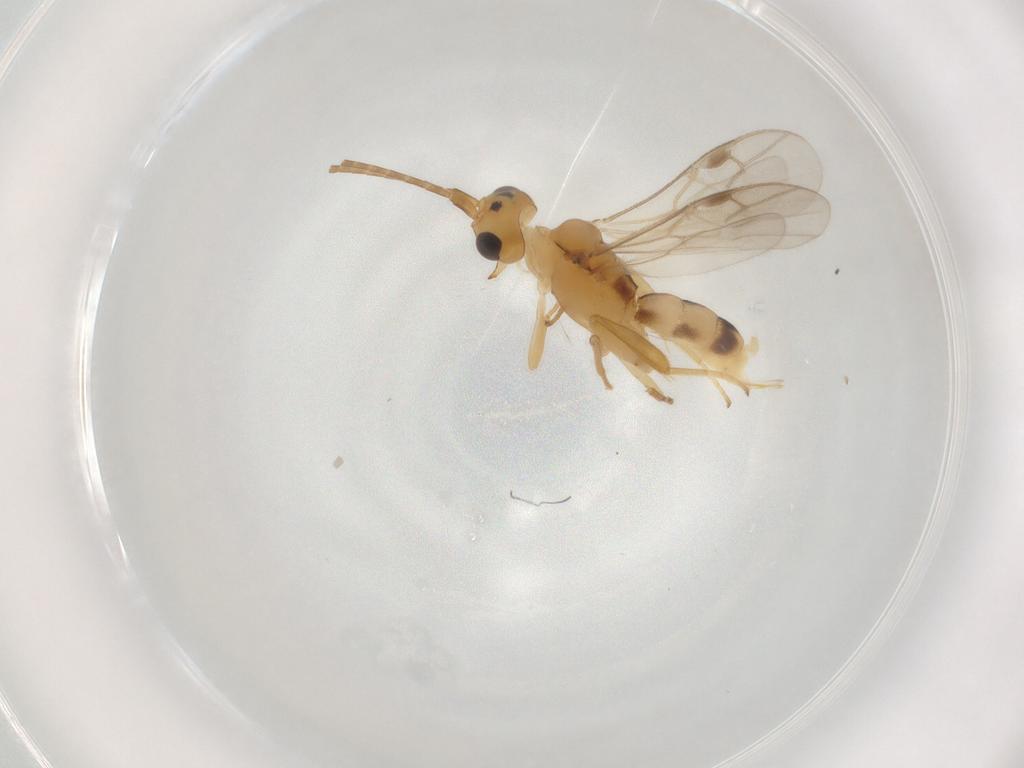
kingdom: Animalia
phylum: Arthropoda
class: Insecta
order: Hymenoptera
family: Braconidae
